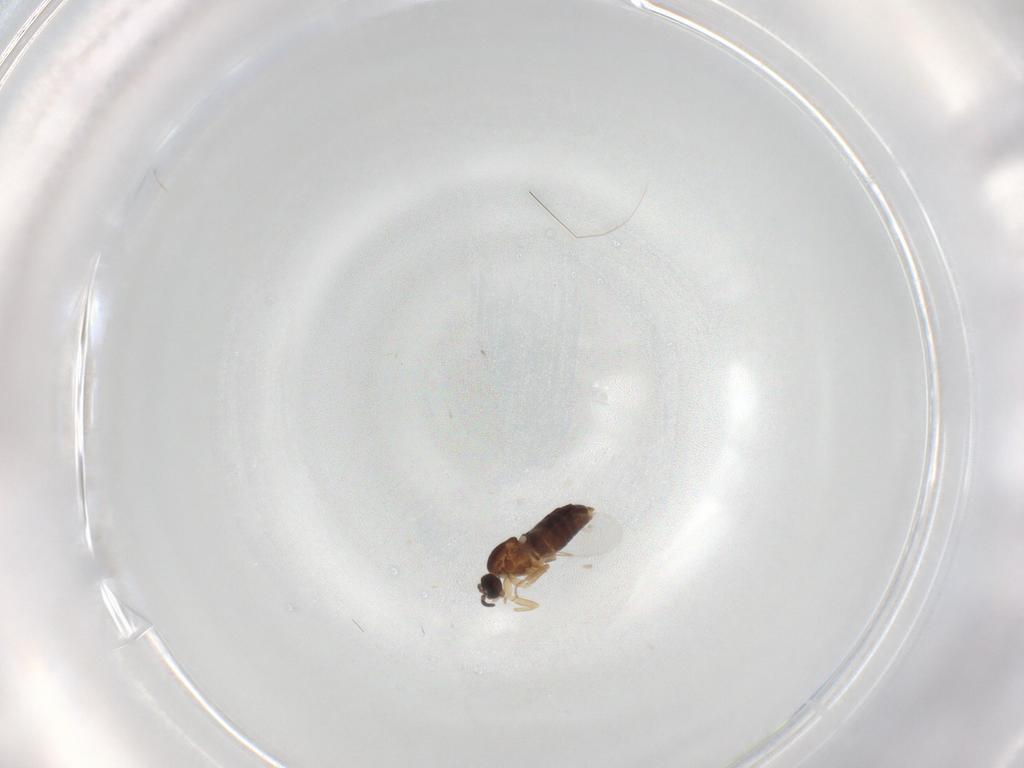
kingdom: Animalia
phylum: Arthropoda
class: Insecta
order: Diptera
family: Scatopsidae
